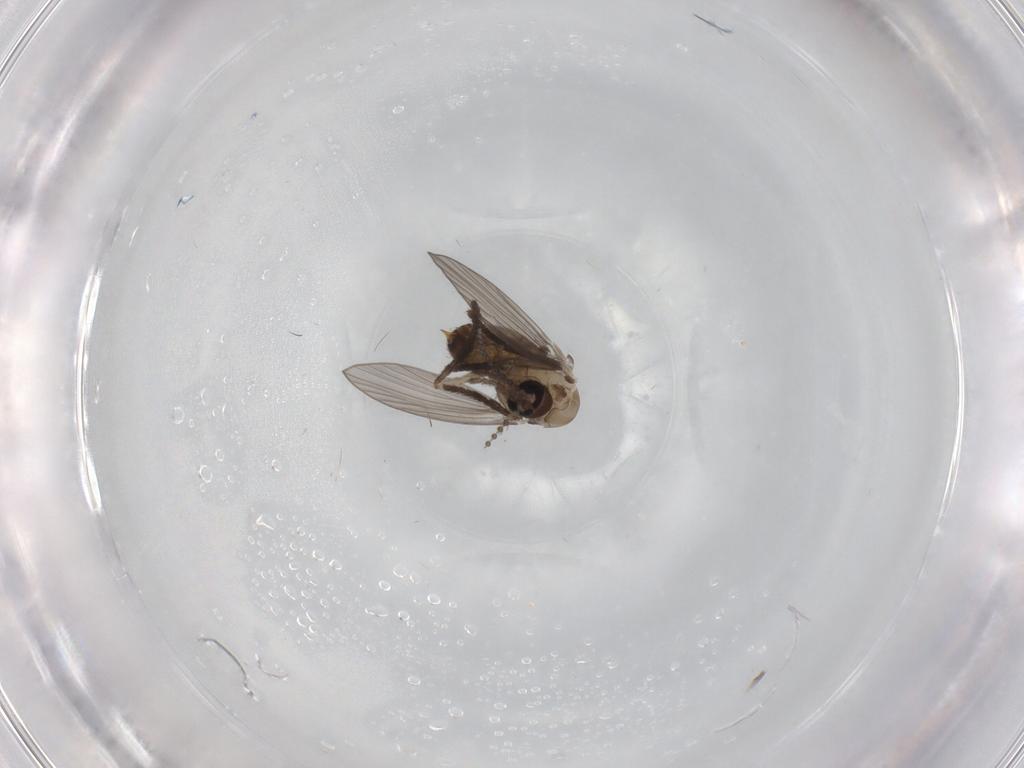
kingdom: Animalia
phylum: Arthropoda
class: Insecta
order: Diptera
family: Psychodidae
